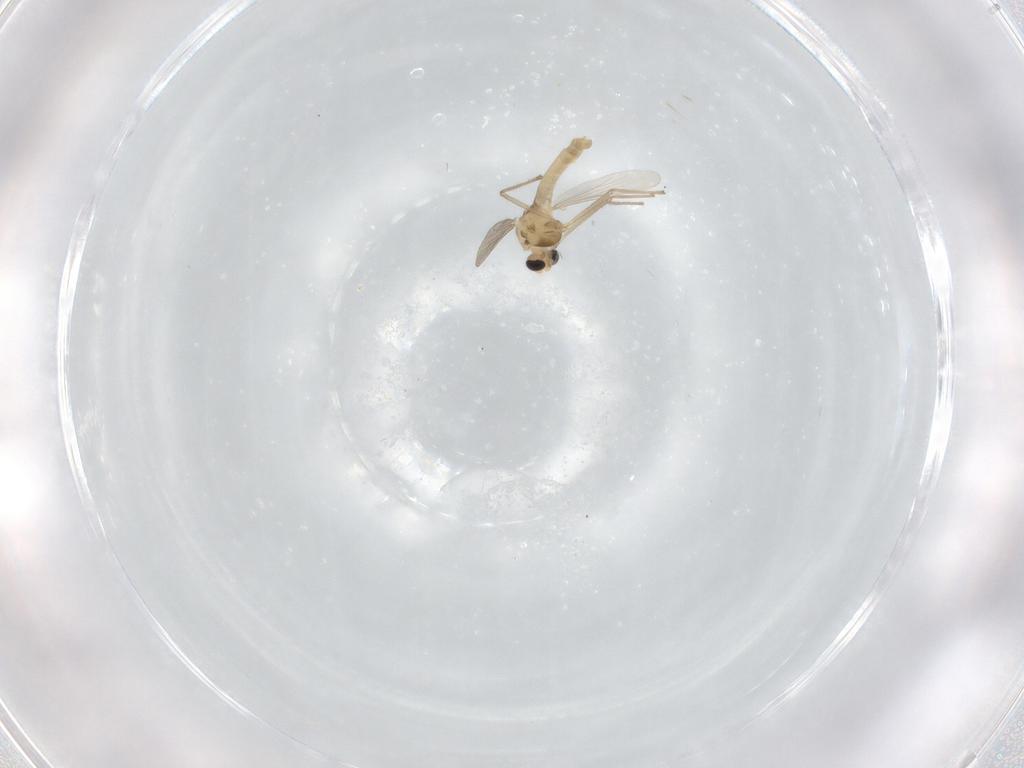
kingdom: Animalia
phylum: Arthropoda
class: Insecta
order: Diptera
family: Chironomidae
